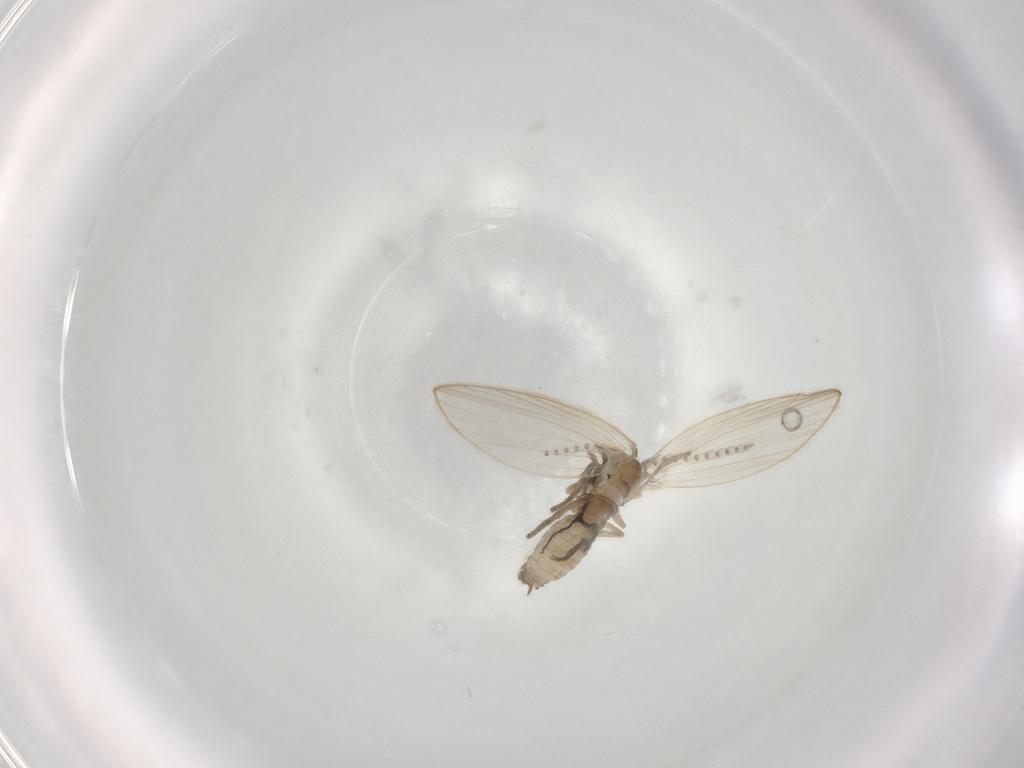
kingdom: Animalia
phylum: Arthropoda
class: Insecta
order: Diptera
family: Psychodidae
